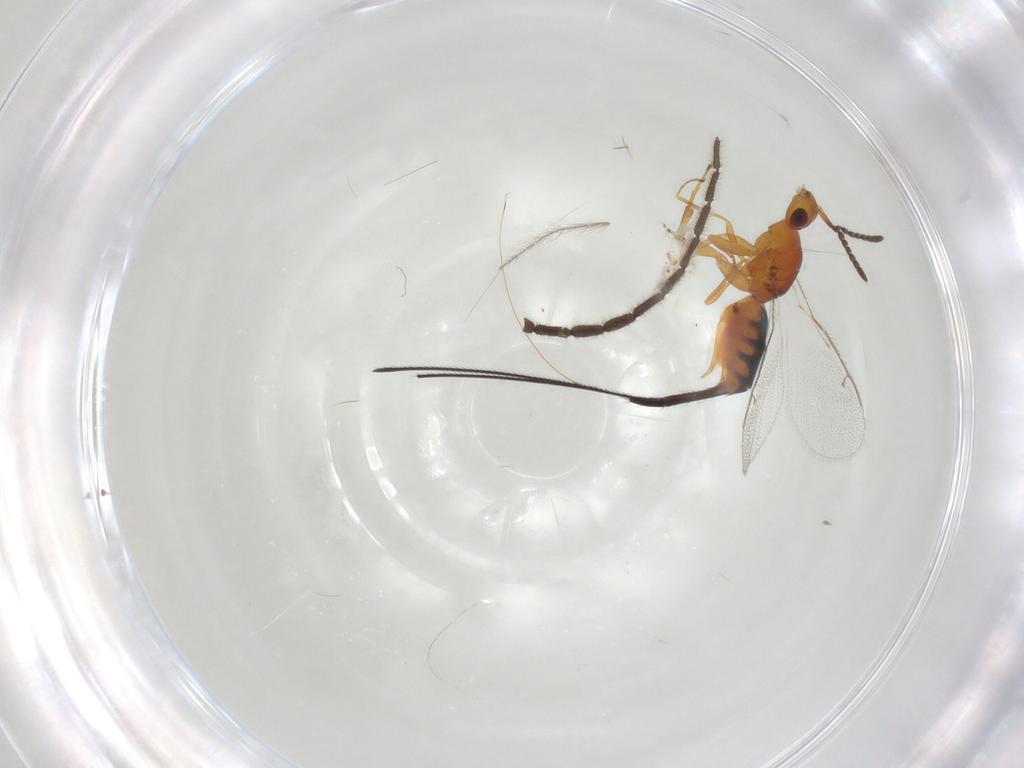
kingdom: Animalia
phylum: Arthropoda
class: Insecta
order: Diptera
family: Sciaridae
